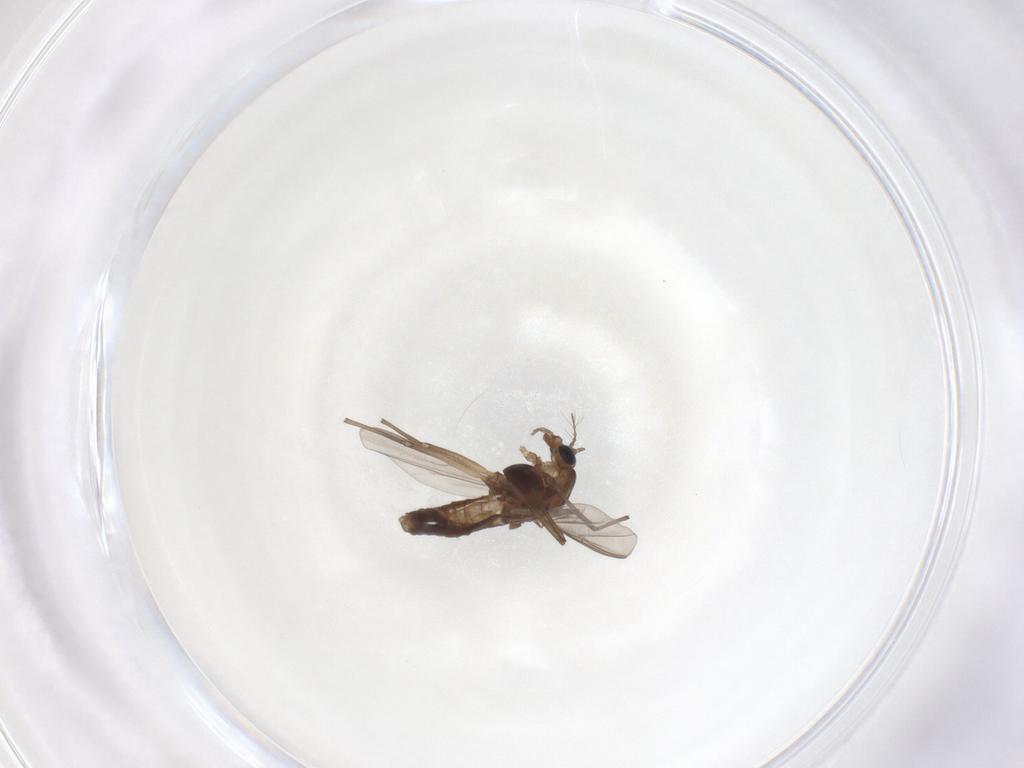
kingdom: Animalia
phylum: Arthropoda
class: Insecta
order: Diptera
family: Chironomidae
